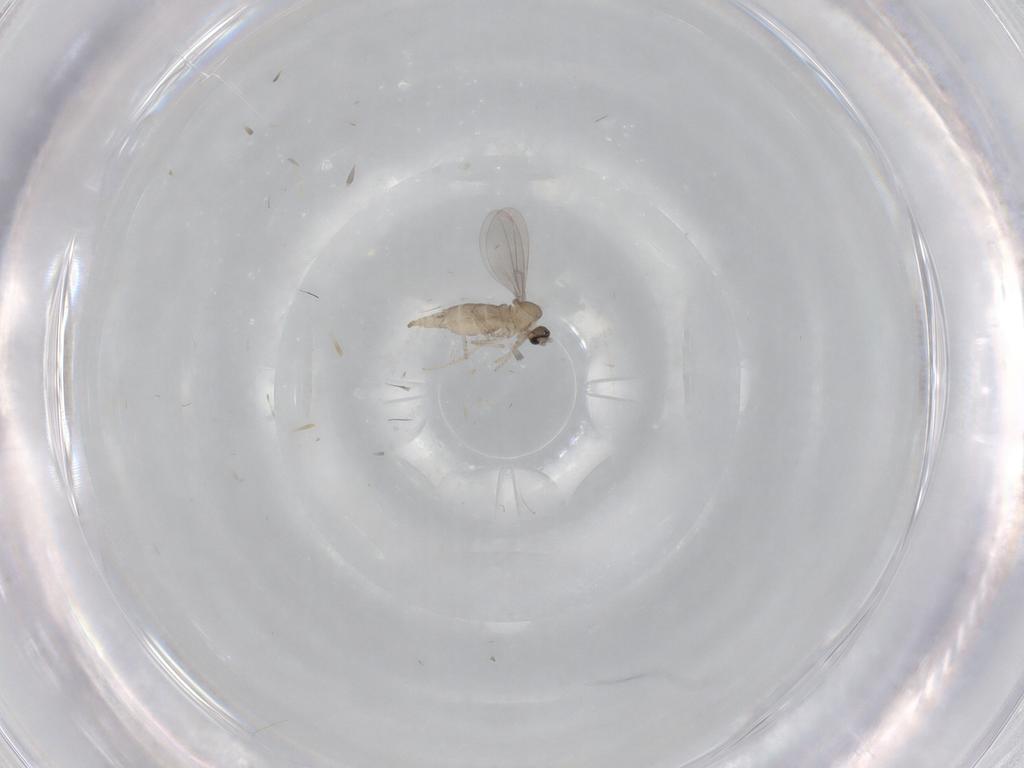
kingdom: Animalia
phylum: Arthropoda
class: Insecta
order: Diptera
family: Cecidomyiidae
